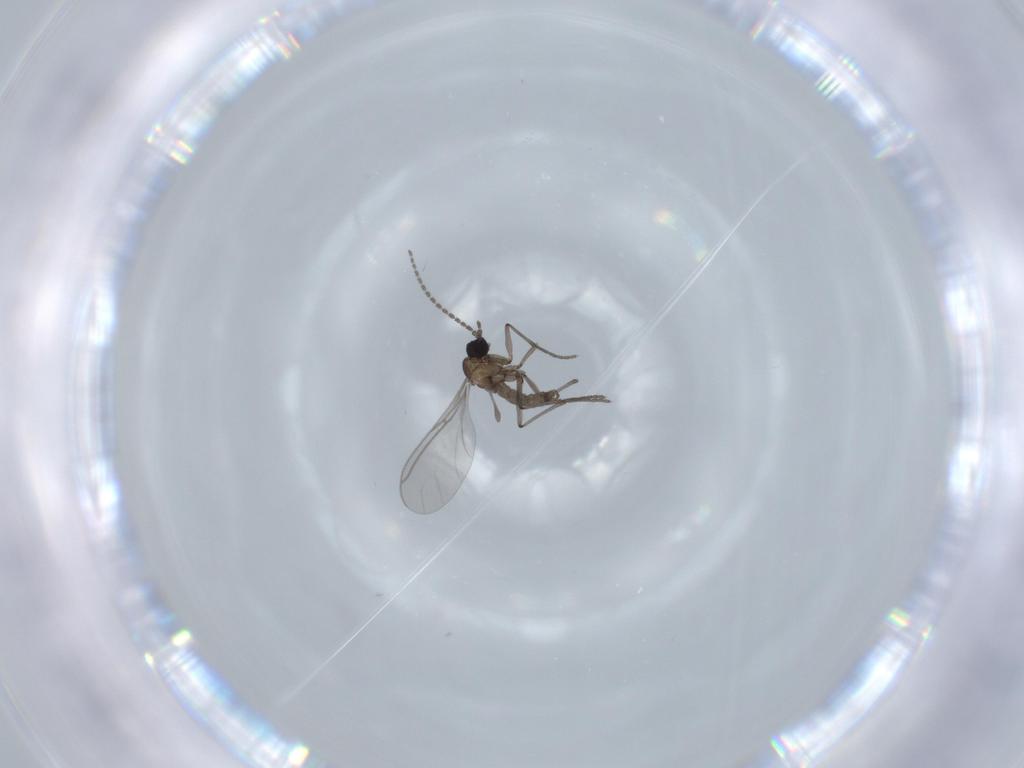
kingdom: Animalia
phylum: Arthropoda
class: Insecta
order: Diptera
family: Sciaridae
